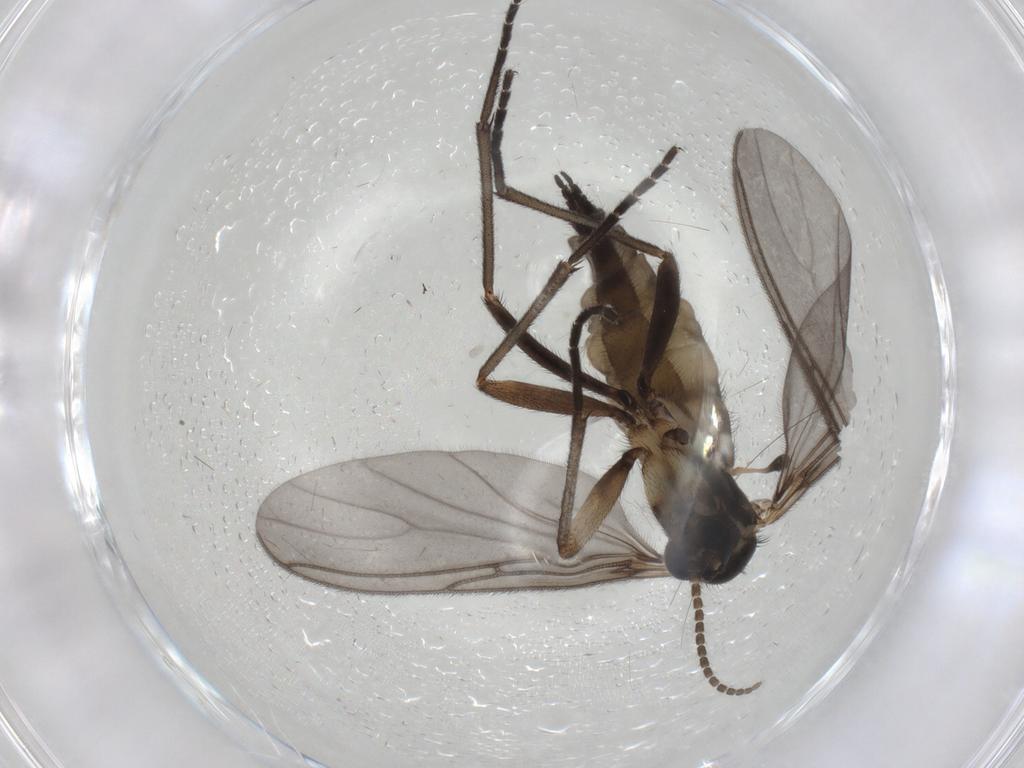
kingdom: Animalia
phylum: Arthropoda
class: Insecta
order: Diptera
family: Sciaridae
